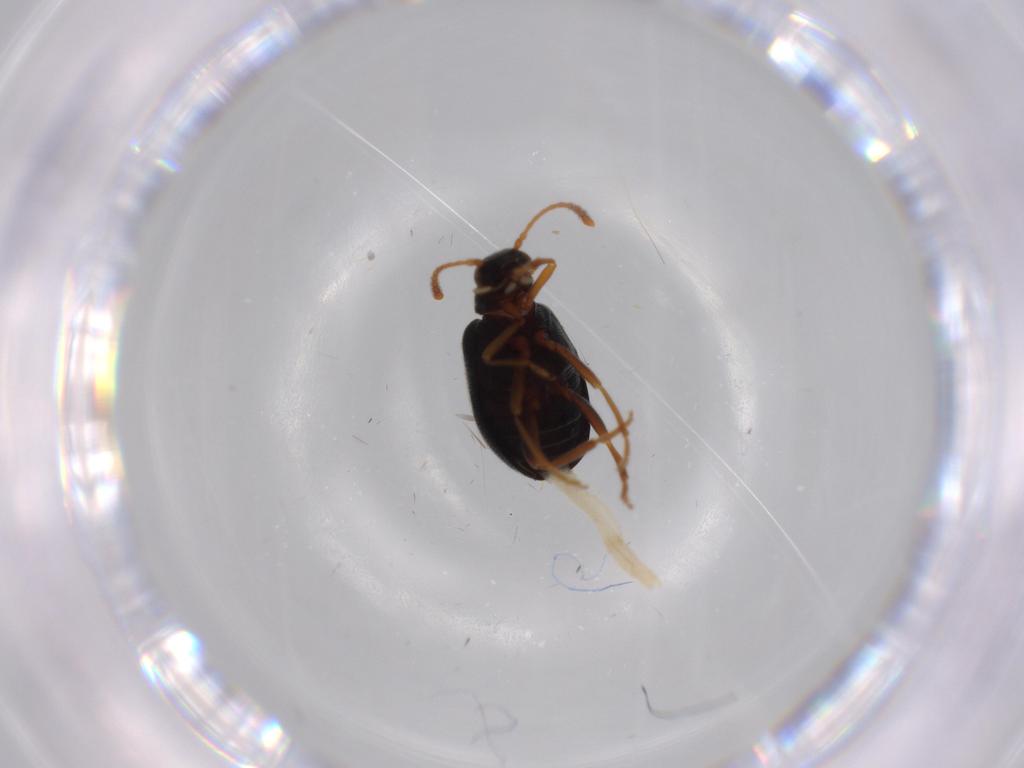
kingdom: Animalia
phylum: Arthropoda
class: Insecta
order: Coleoptera
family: Aderidae
